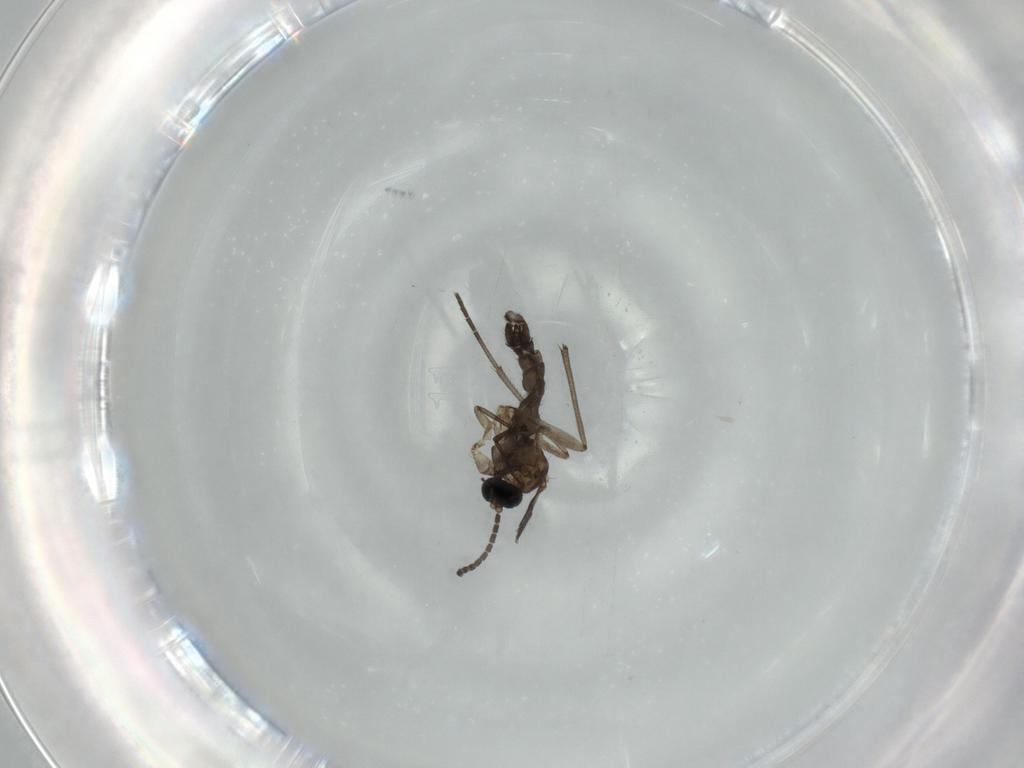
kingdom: Animalia
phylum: Arthropoda
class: Insecta
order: Diptera
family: Sciaridae
